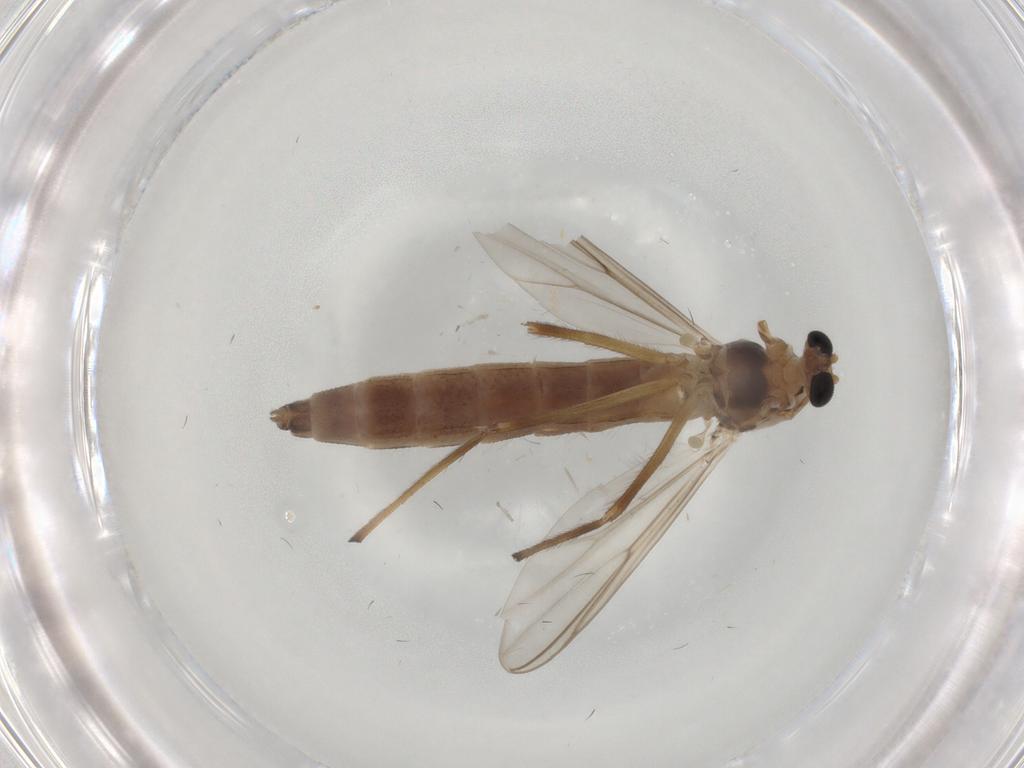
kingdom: Animalia
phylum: Arthropoda
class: Insecta
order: Diptera
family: Chironomidae
